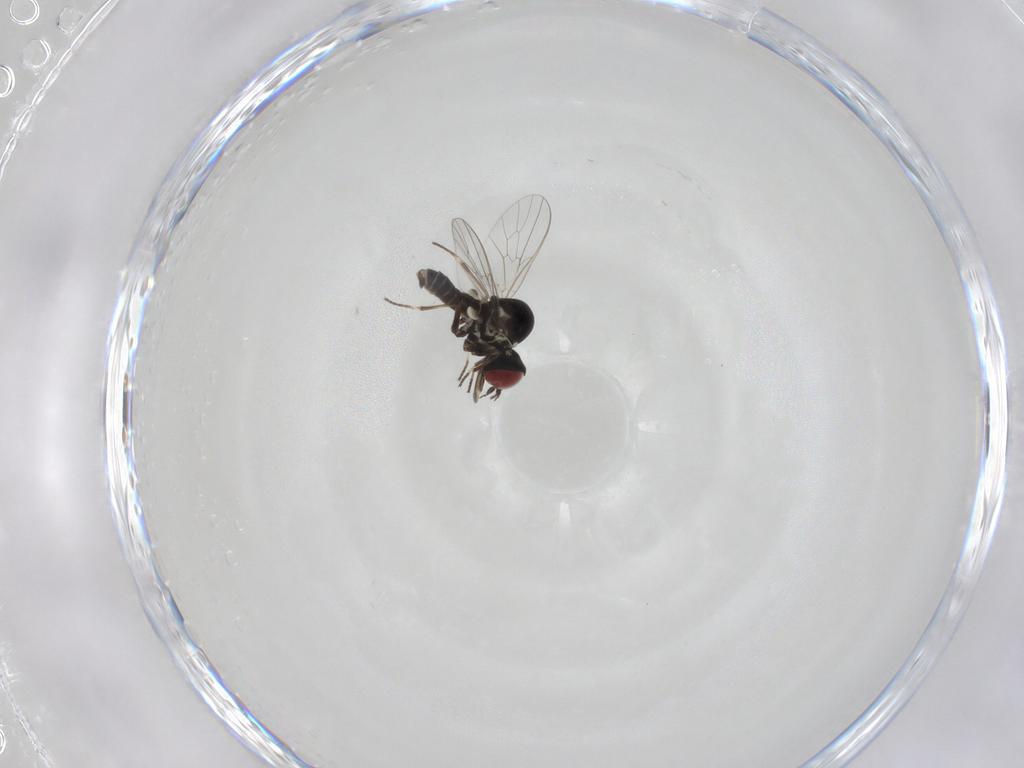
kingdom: Animalia
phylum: Arthropoda
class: Insecta
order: Diptera
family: Mythicomyiidae
